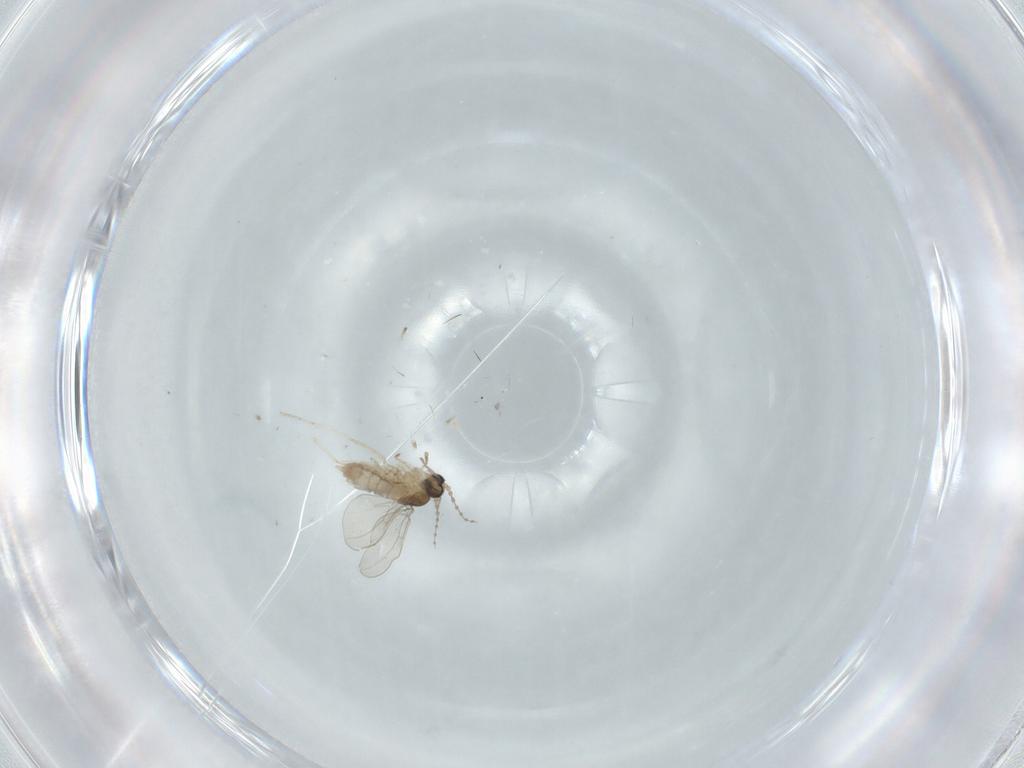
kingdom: Animalia
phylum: Arthropoda
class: Insecta
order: Diptera
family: Cecidomyiidae
